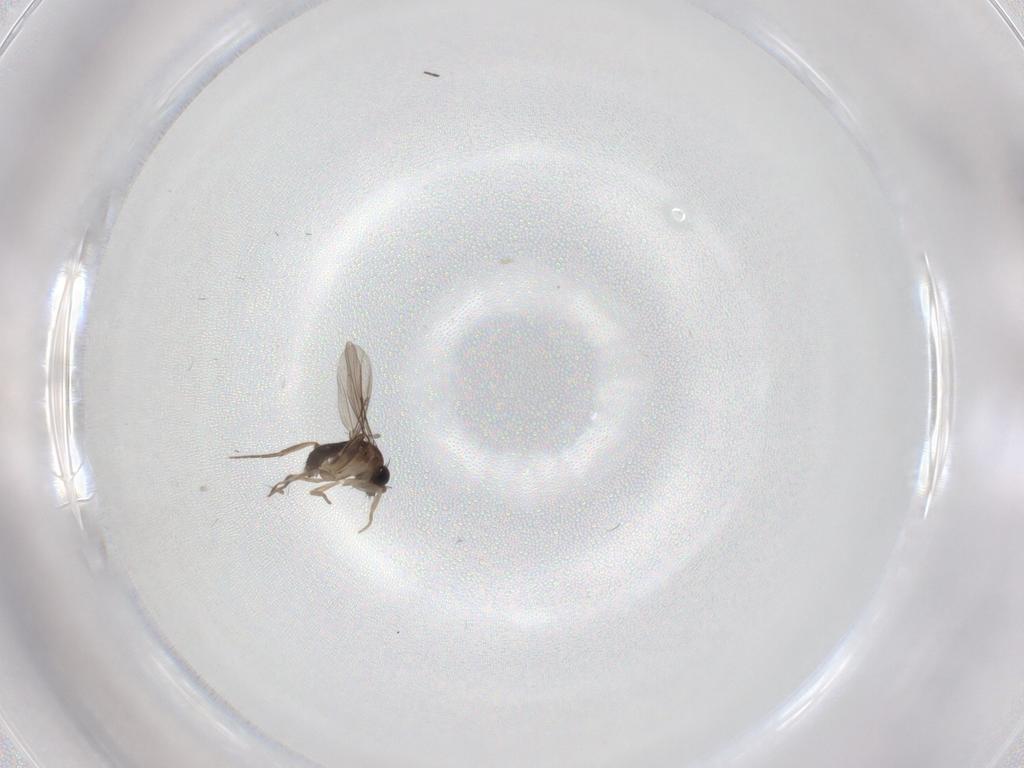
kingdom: Animalia
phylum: Arthropoda
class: Insecta
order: Diptera
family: Phoridae
